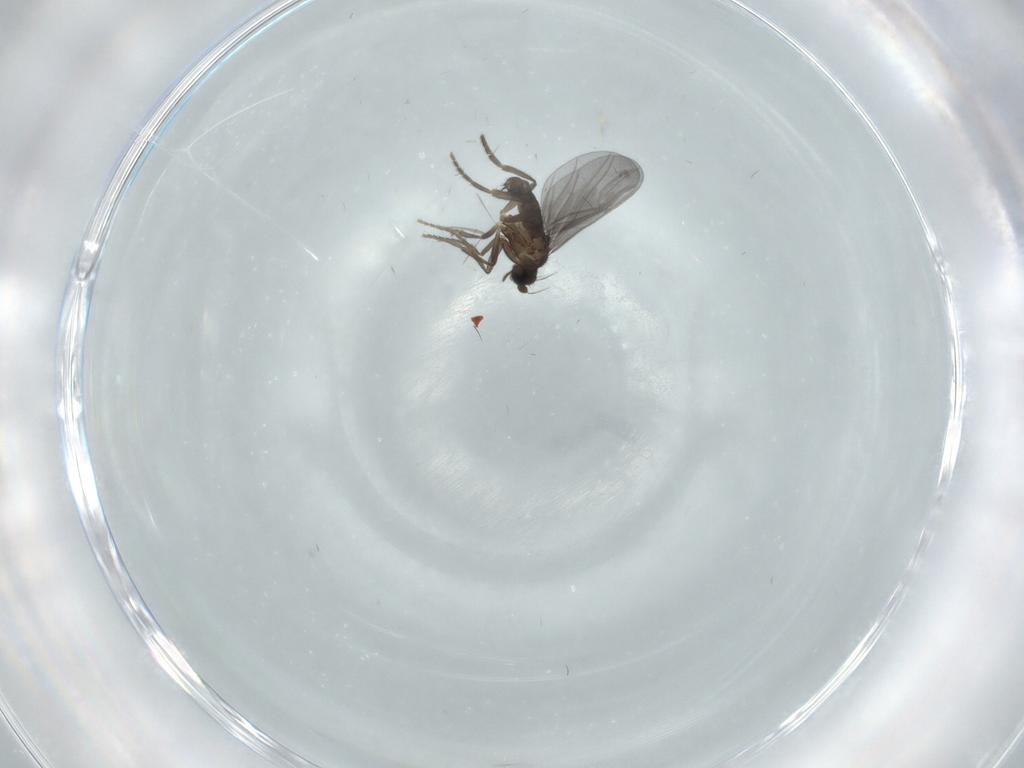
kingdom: Animalia
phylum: Arthropoda
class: Insecta
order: Diptera
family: Phoridae
